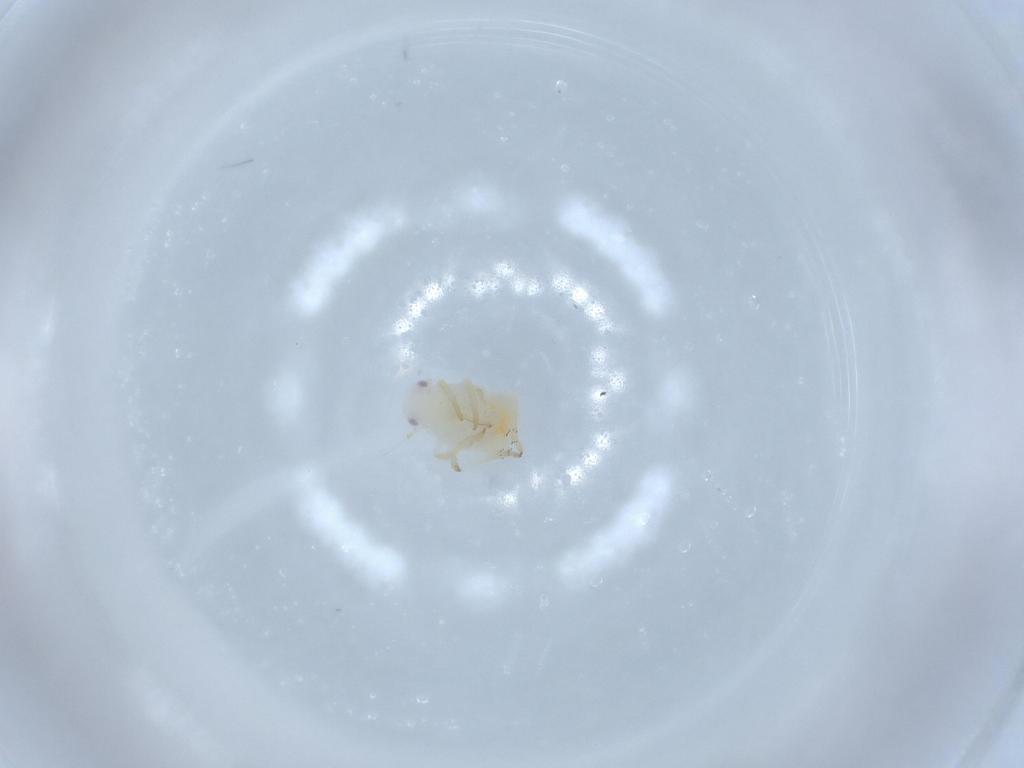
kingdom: Animalia
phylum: Arthropoda
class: Insecta
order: Hemiptera
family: Flatidae
